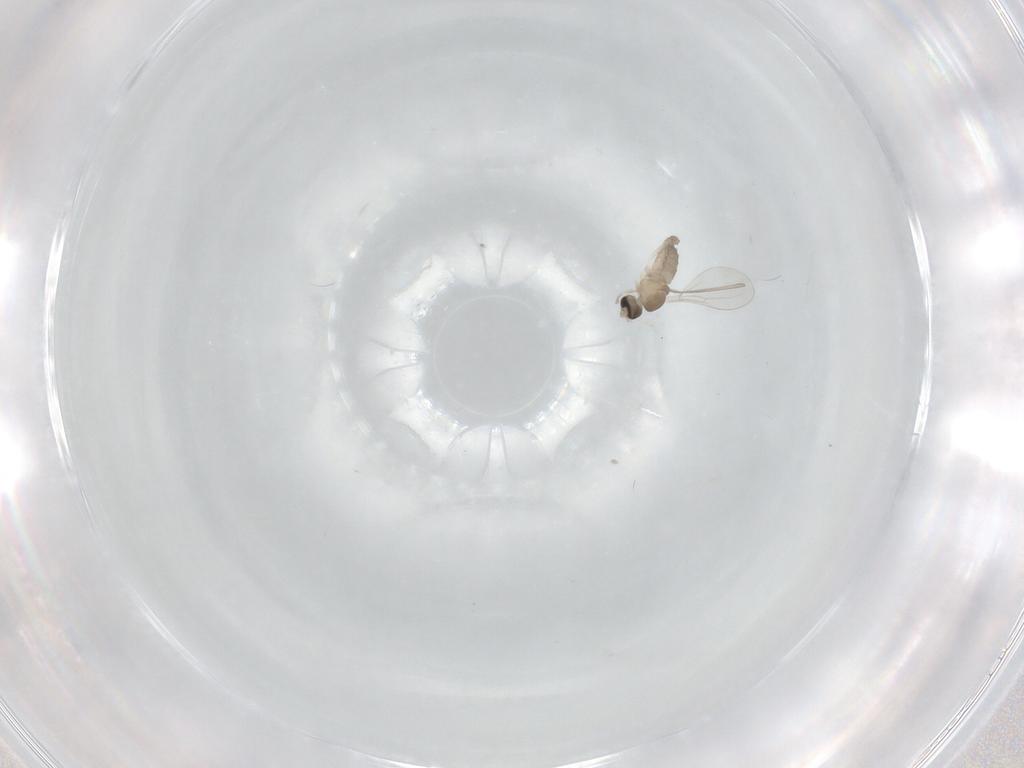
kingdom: Animalia
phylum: Arthropoda
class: Insecta
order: Diptera
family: Cecidomyiidae
